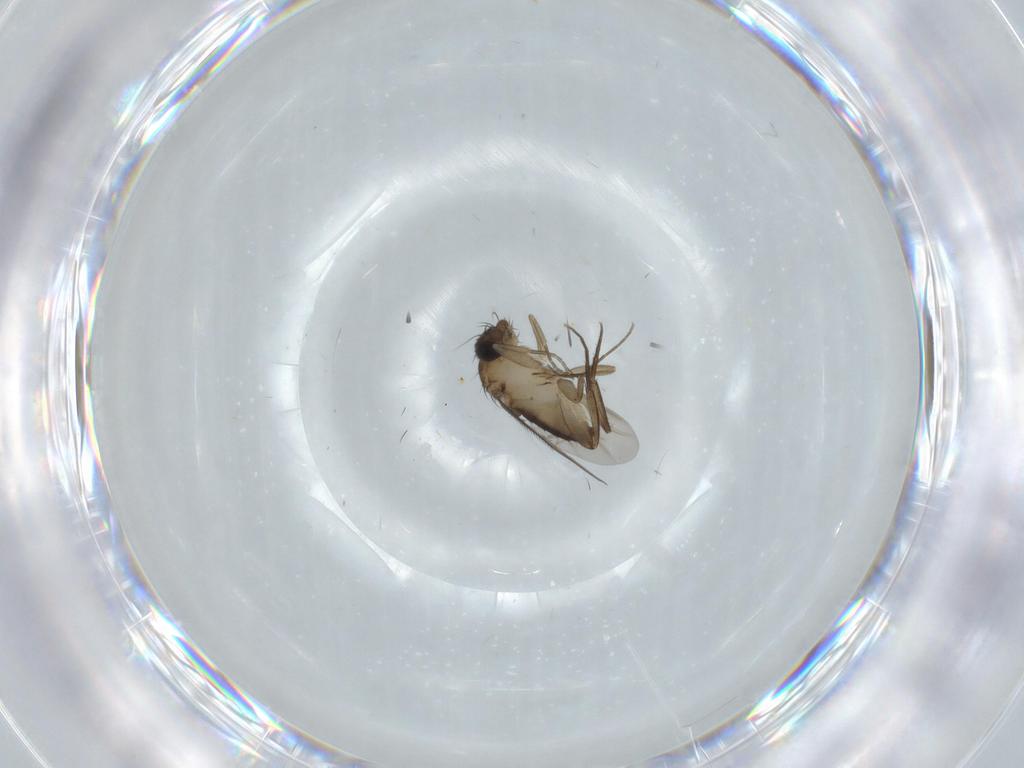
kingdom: Animalia
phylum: Arthropoda
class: Insecta
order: Diptera
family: Phoridae
